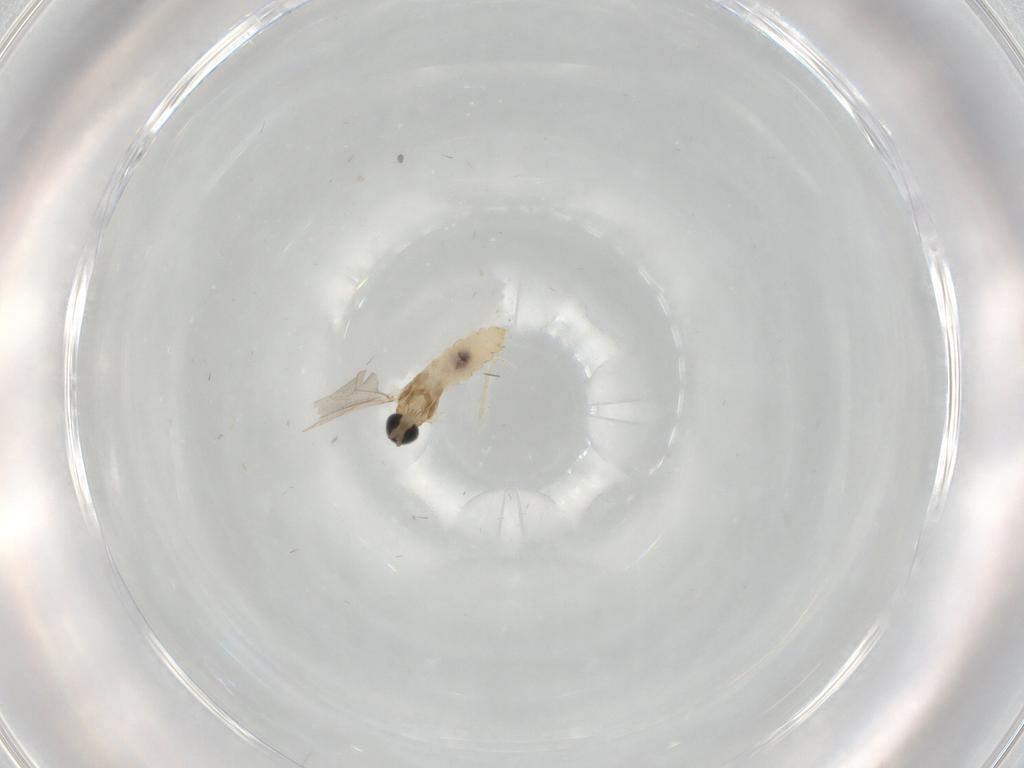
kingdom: Animalia
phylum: Arthropoda
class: Insecta
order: Diptera
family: Cecidomyiidae
